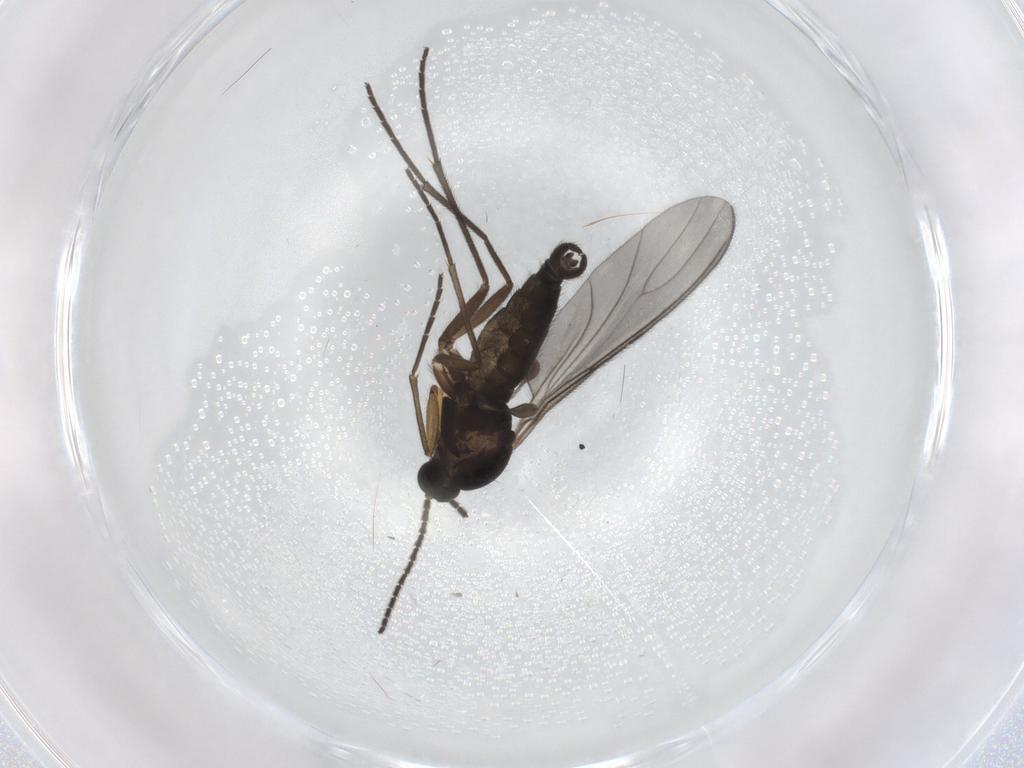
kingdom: Animalia
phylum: Arthropoda
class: Insecta
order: Diptera
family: Sciaridae
